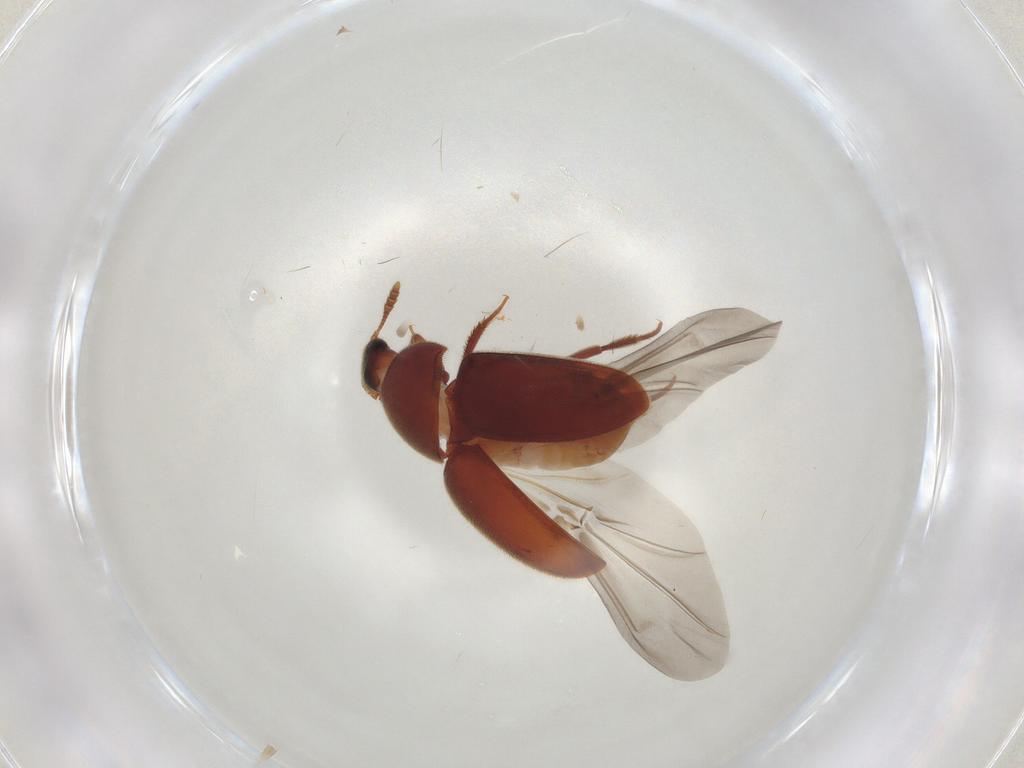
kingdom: Animalia
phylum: Arthropoda
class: Insecta
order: Coleoptera
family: Leiodidae
